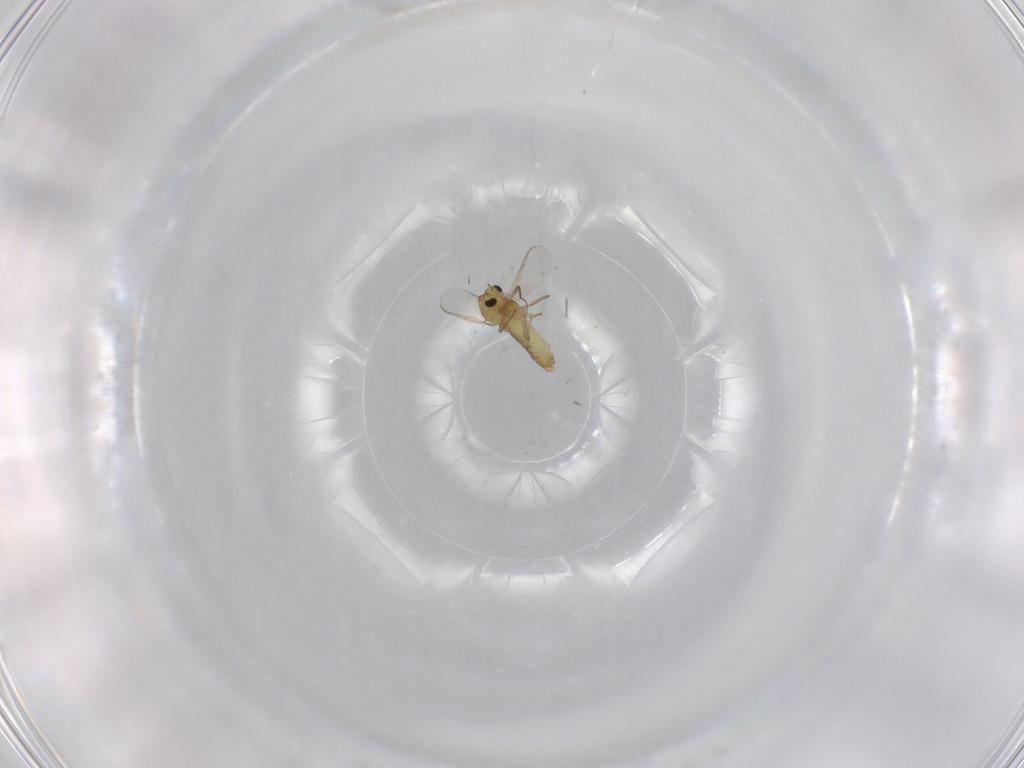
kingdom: Animalia
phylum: Arthropoda
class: Insecta
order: Diptera
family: Chironomidae
